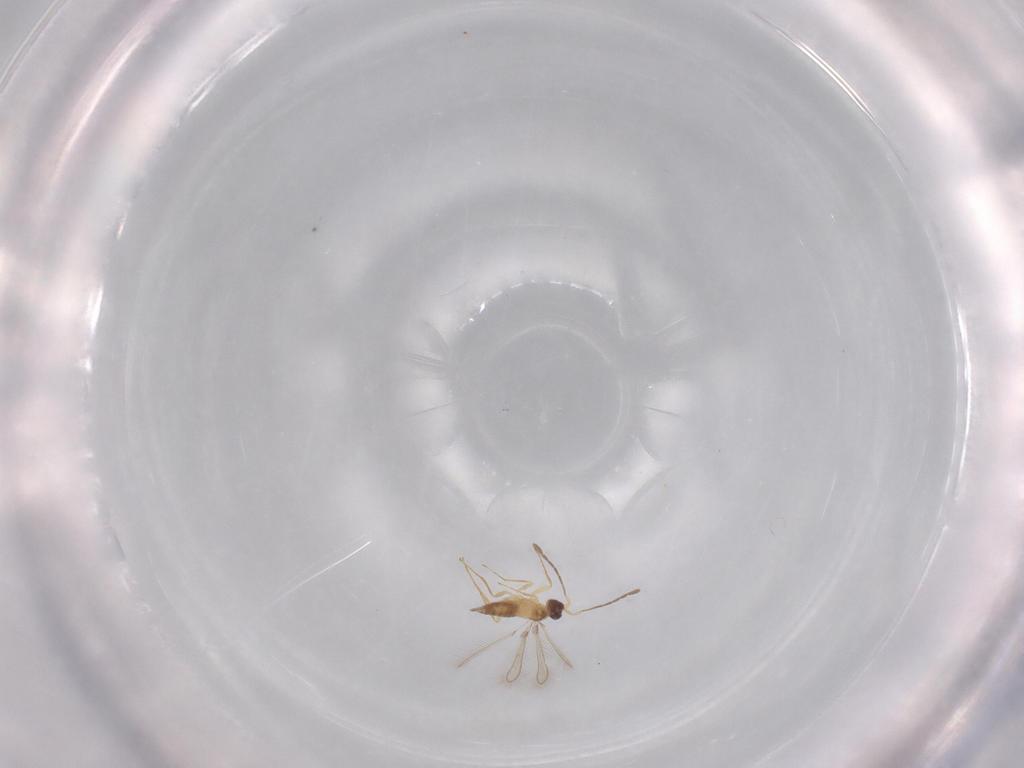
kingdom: Animalia
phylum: Arthropoda
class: Insecta
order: Hymenoptera
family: Mymaridae
